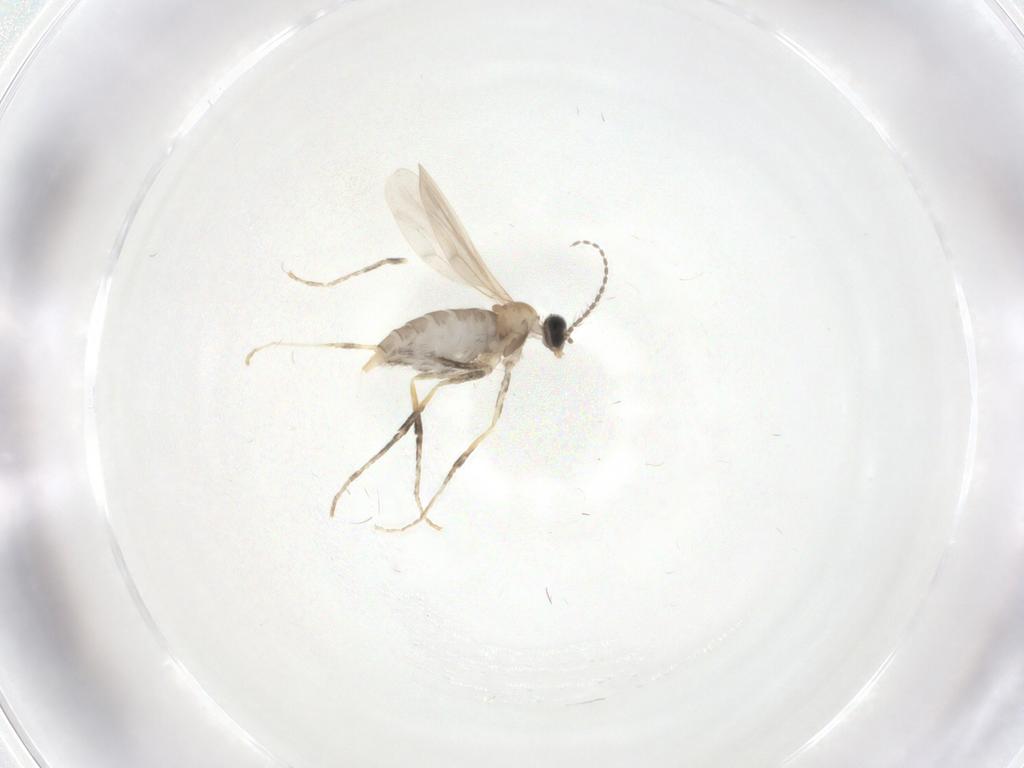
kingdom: Animalia
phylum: Arthropoda
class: Insecta
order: Diptera
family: Cecidomyiidae
